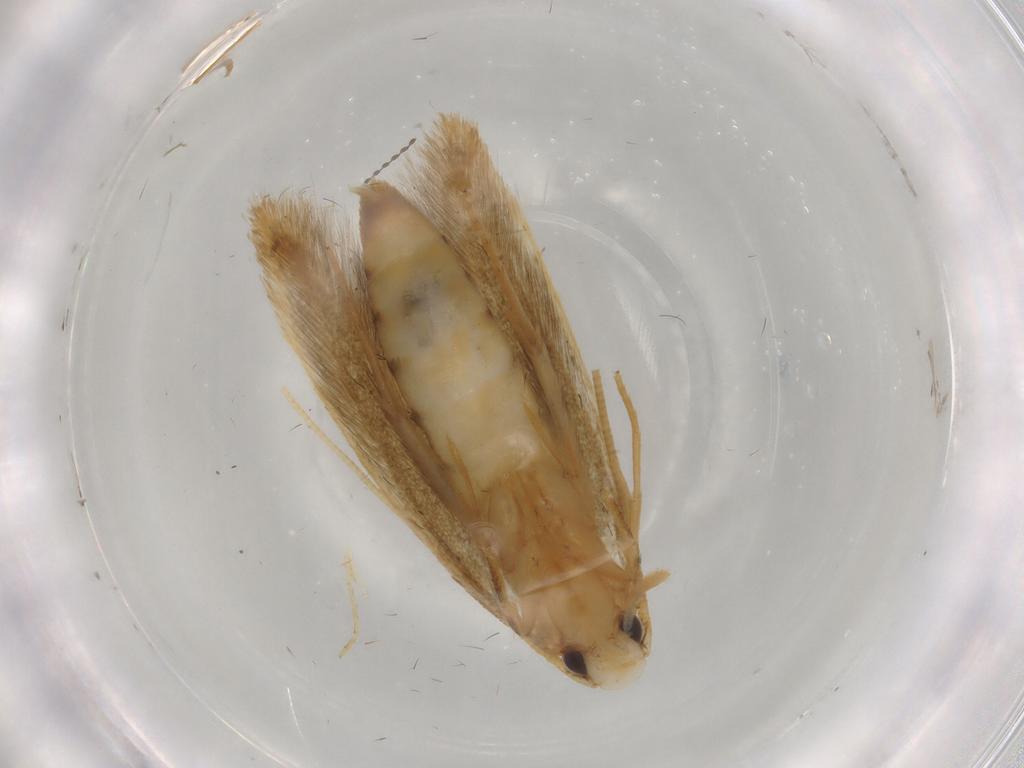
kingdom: Animalia
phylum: Arthropoda
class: Insecta
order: Lepidoptera
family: Tineidae
